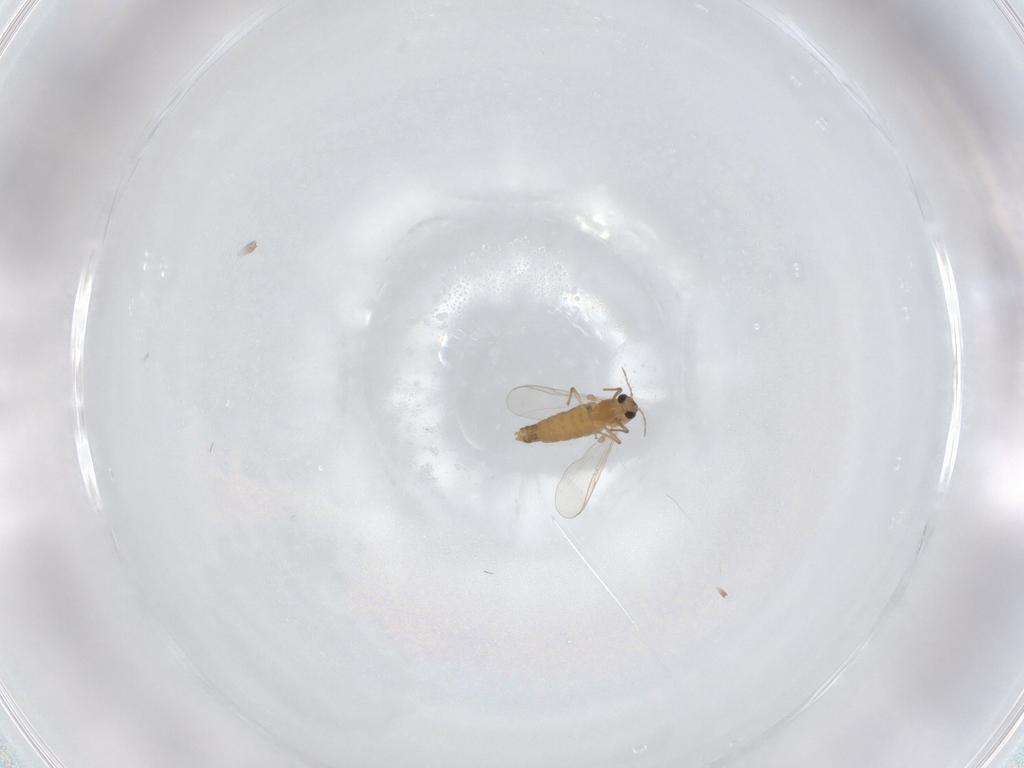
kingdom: Animalia
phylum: Arthropoda
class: Insecta
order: Diptera
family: Chironomidae
